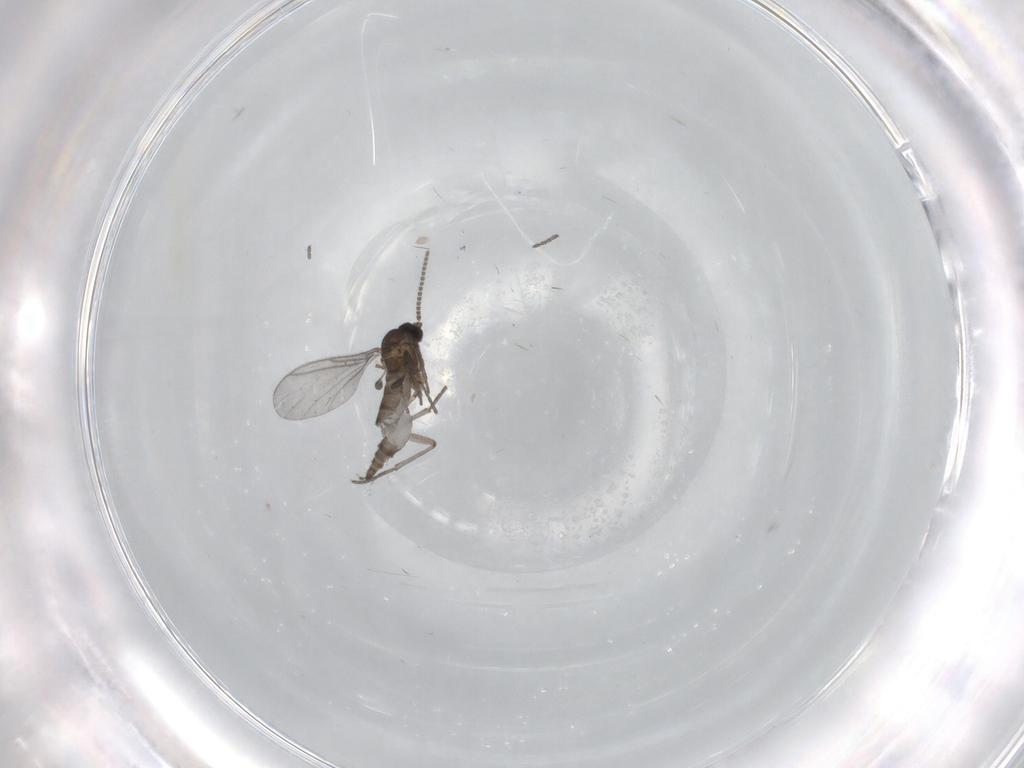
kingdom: Animalia
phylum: Arthropoda
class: Insecta
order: Diptera
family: Sciaridae
